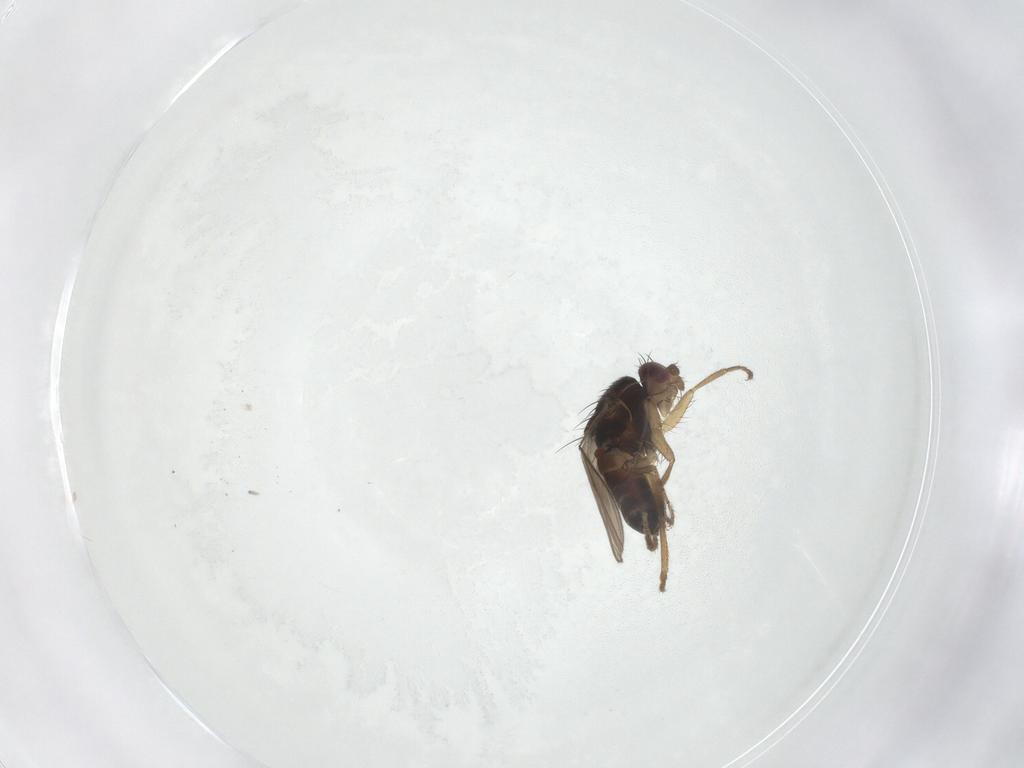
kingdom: Animalia
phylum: Arthropoda
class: Insecta
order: Diptera
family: Sphaeroceridae
